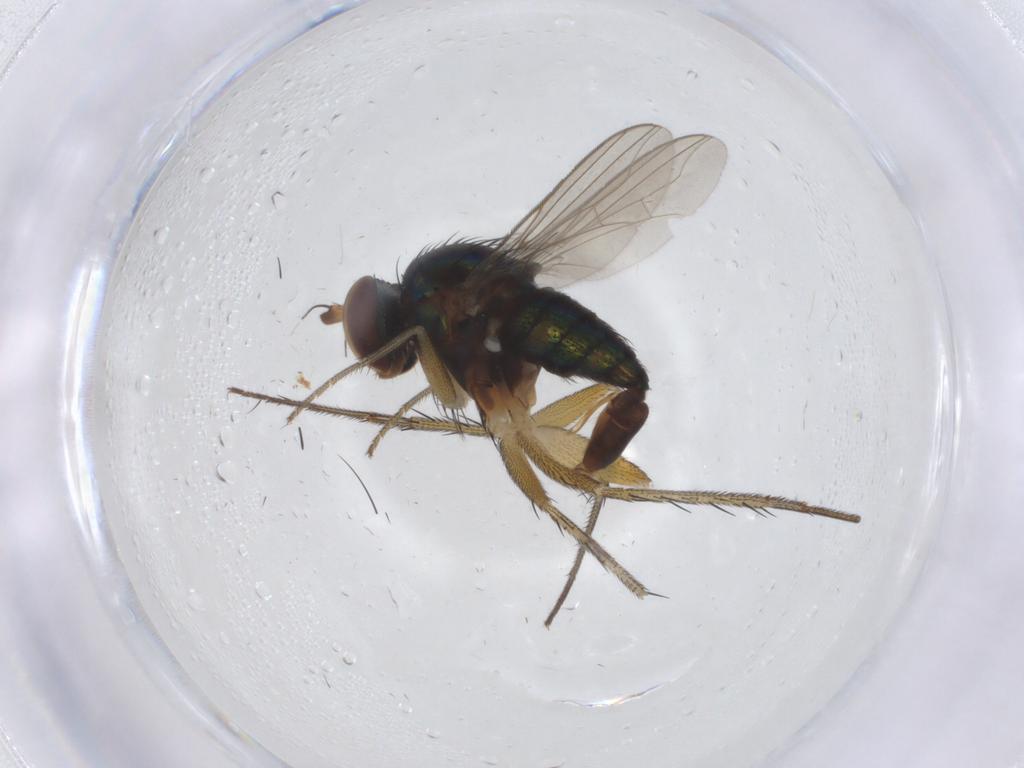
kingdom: Animalia
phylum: Arthropoda
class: Insecta
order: Diptera
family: Dolichopodidae
